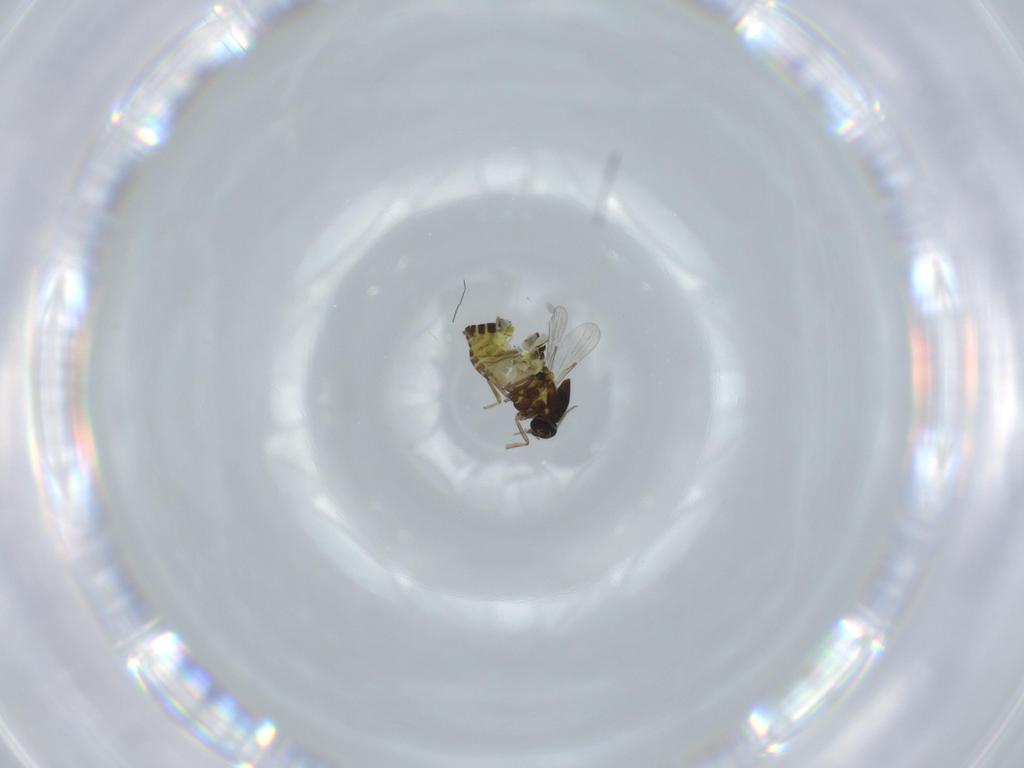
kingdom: Animalia
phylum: Arthropoda
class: Insecta
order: Diptera
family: Ceratopogonidae
